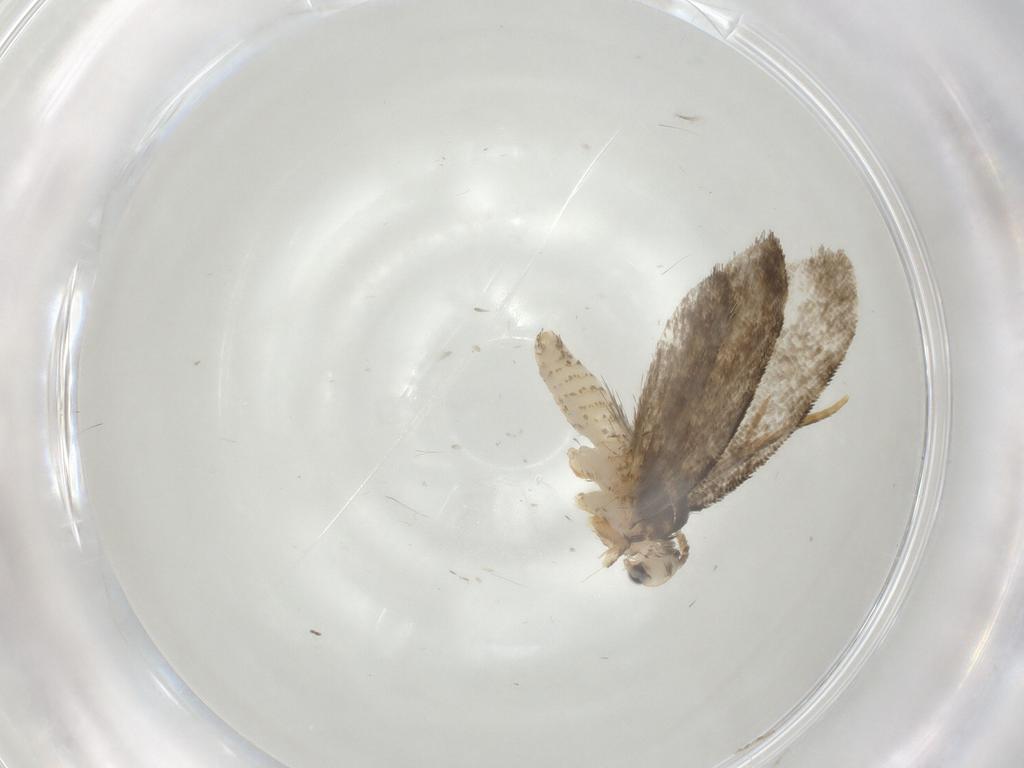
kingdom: Animalia
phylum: Arthropoda
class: Insecta
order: Lepidoptera
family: Psychidae
